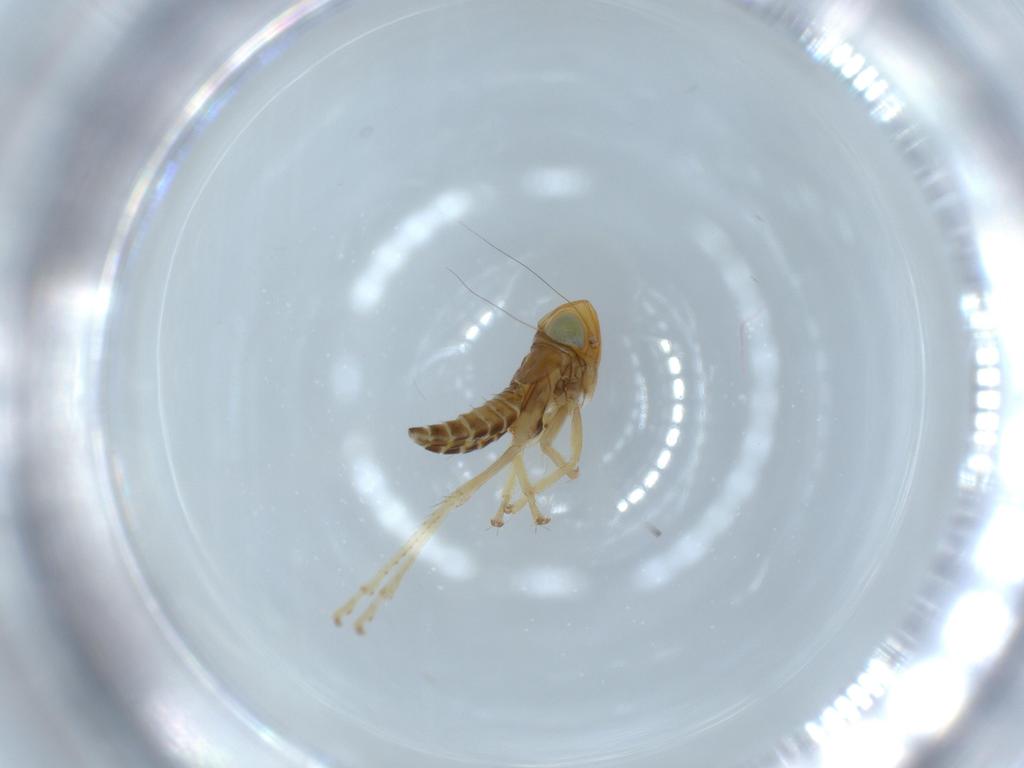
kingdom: Animalia
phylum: Arthropoda
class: Insecta
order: Hemiptera
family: Cicadellidae
